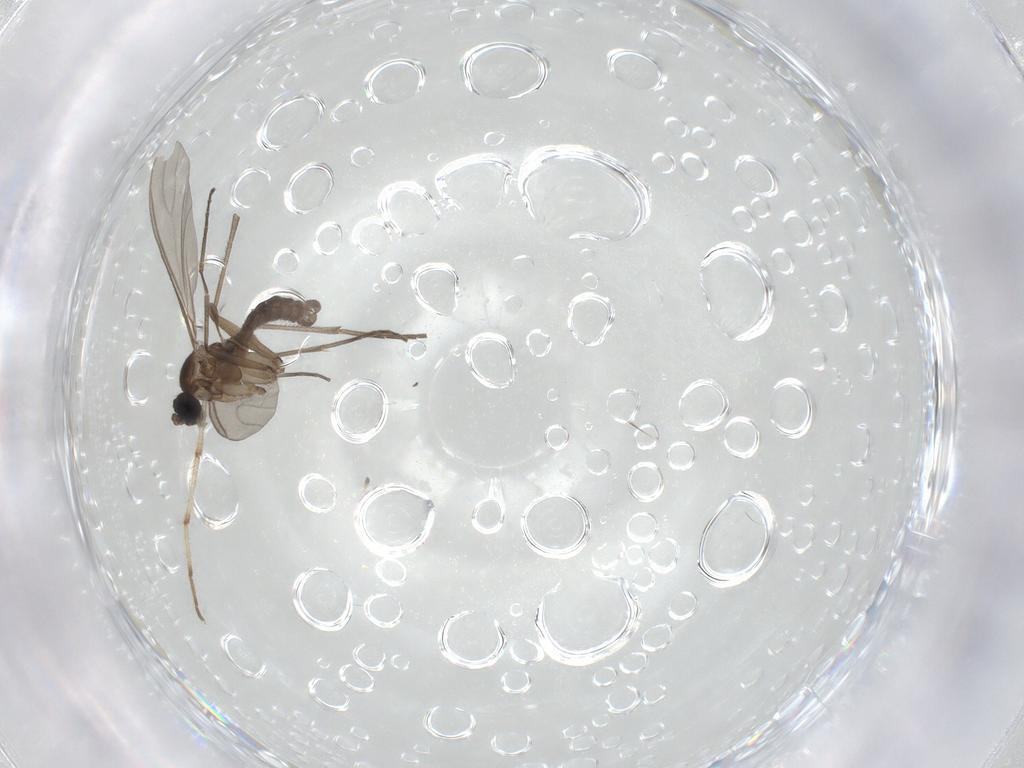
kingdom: Animalia
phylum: Arthropoda
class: Insecta
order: Diptera
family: Sciaridae
